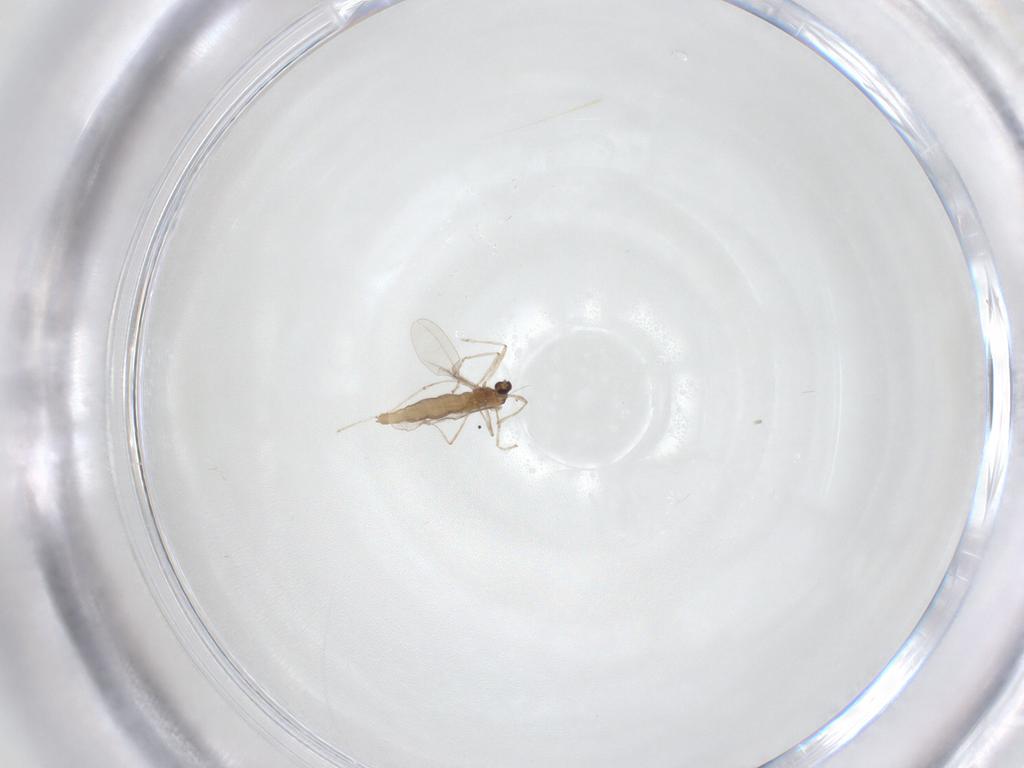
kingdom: Animalia
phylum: Arthropoda
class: Insecta
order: Diptera
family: Cecidomyiidae
